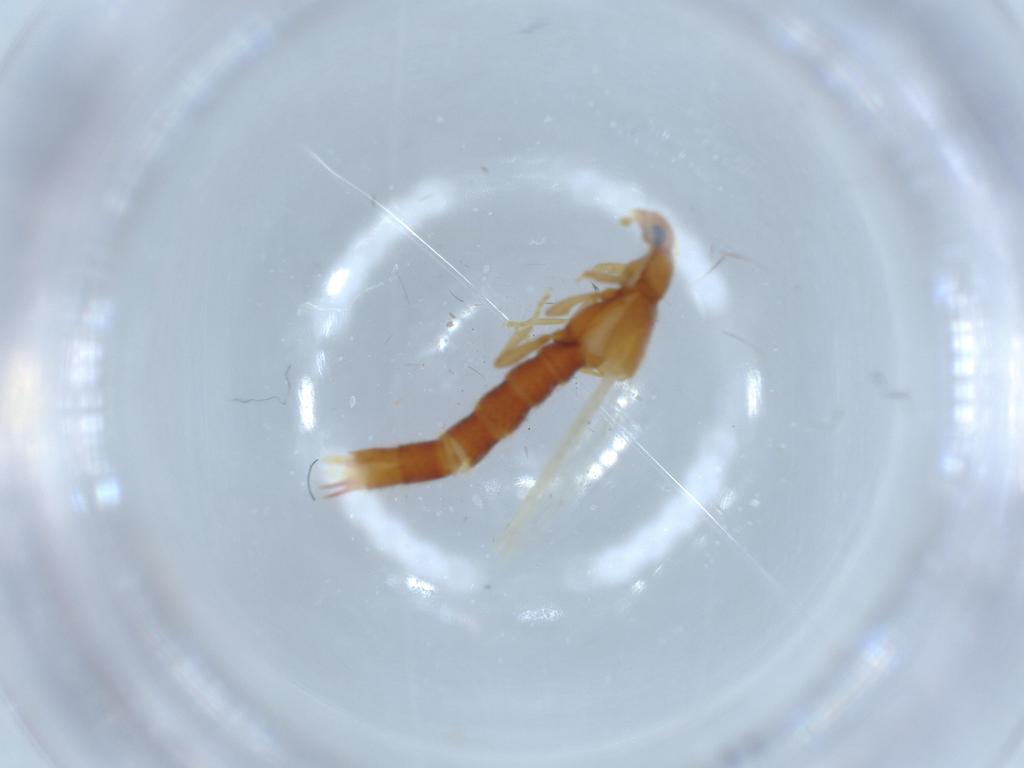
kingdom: Animalia
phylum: Arthropoda
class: Insecta
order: Coleoptera
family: Staphylinidae
